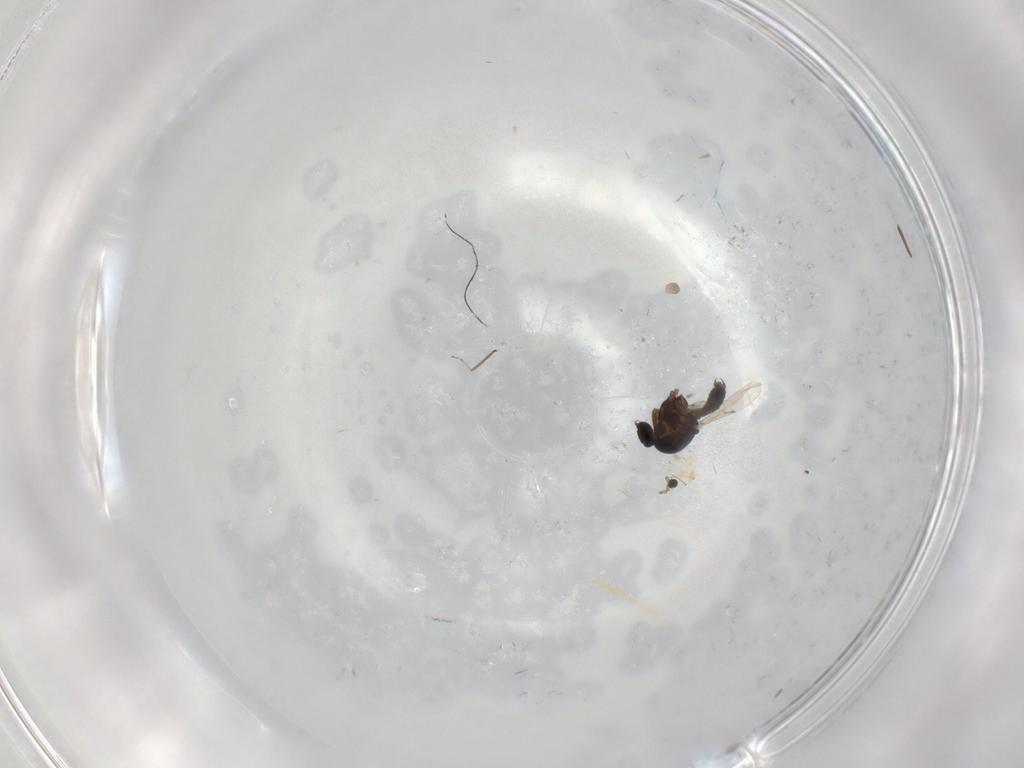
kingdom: Animalia
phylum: Arthropoda
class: Insecta
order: Diptera
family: Ceratopogonidae
